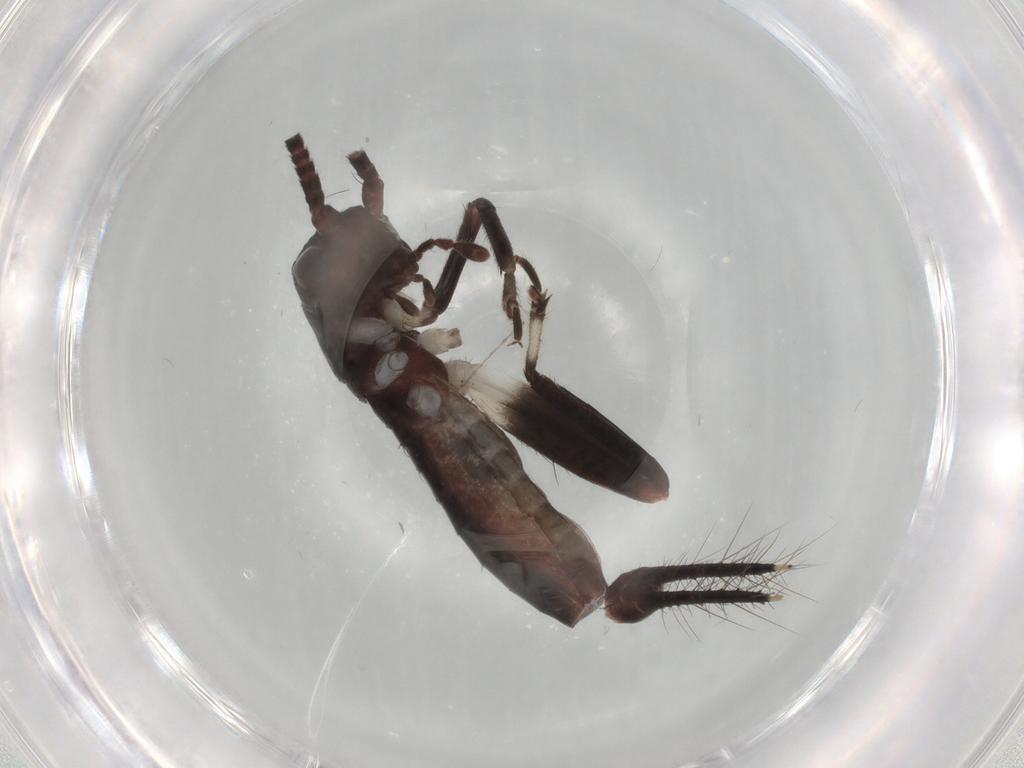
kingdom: Animalia
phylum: Arthropoda
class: Insecta
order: Orthoptera
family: Gryllidae
